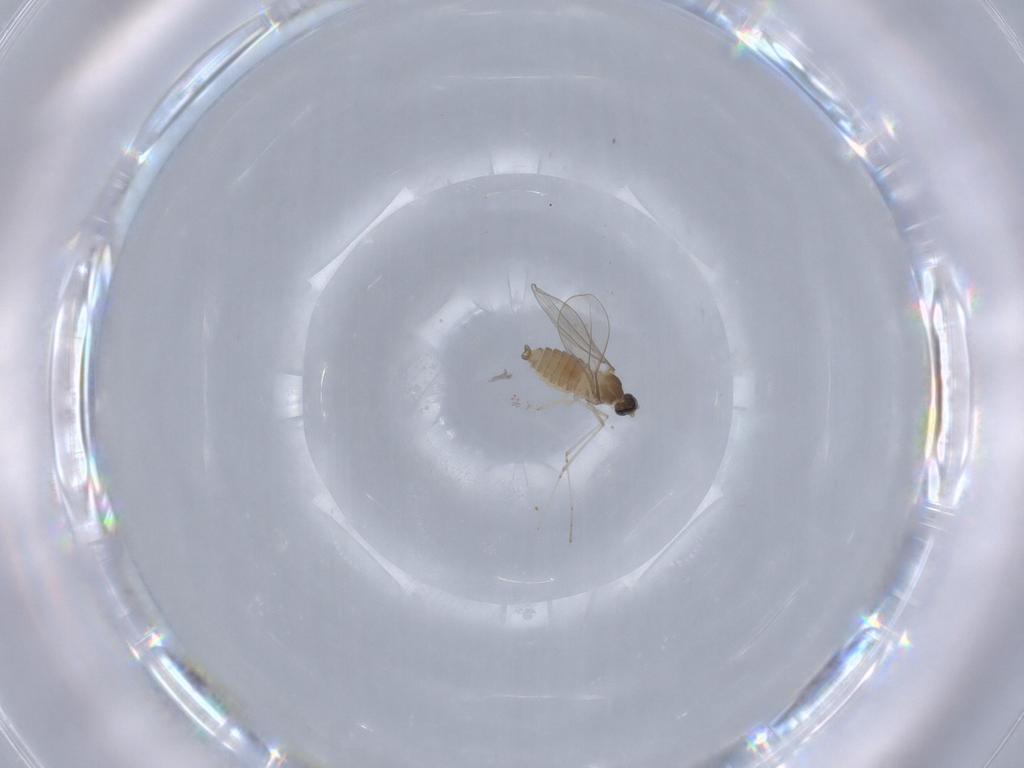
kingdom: Animalia
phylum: Arthropoda
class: Insecta
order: Diptera
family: Cecidomyiidae
